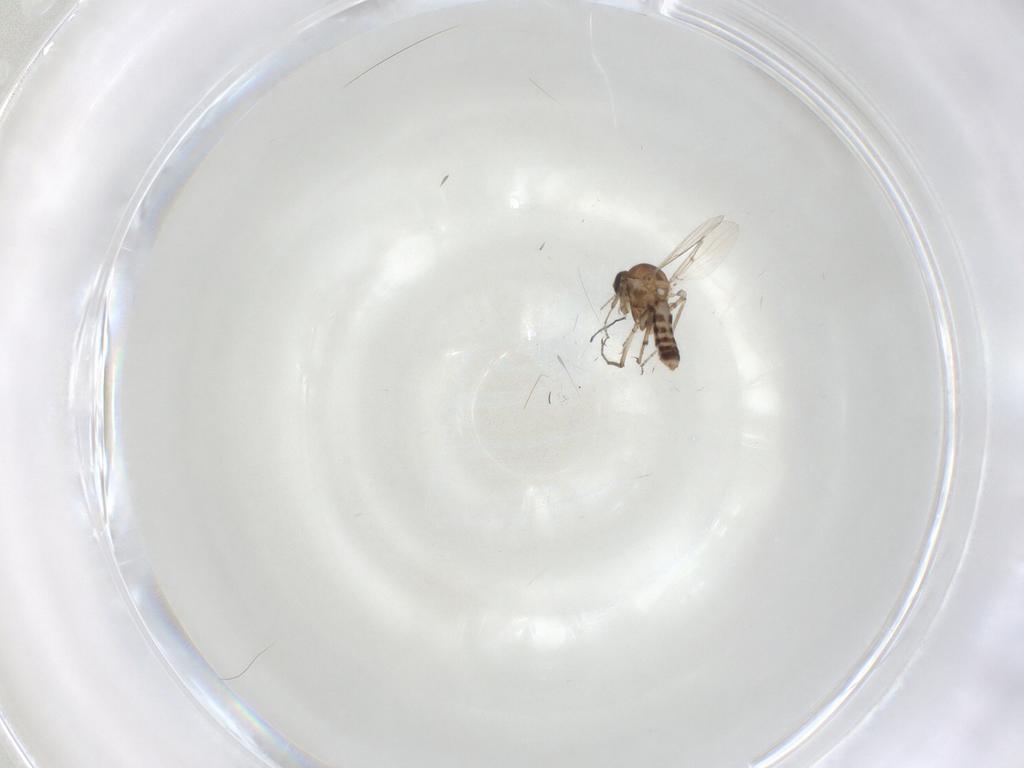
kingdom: Animalia
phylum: Arthropoda
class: Insecta
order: Diptera
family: Ceratopogonidae
